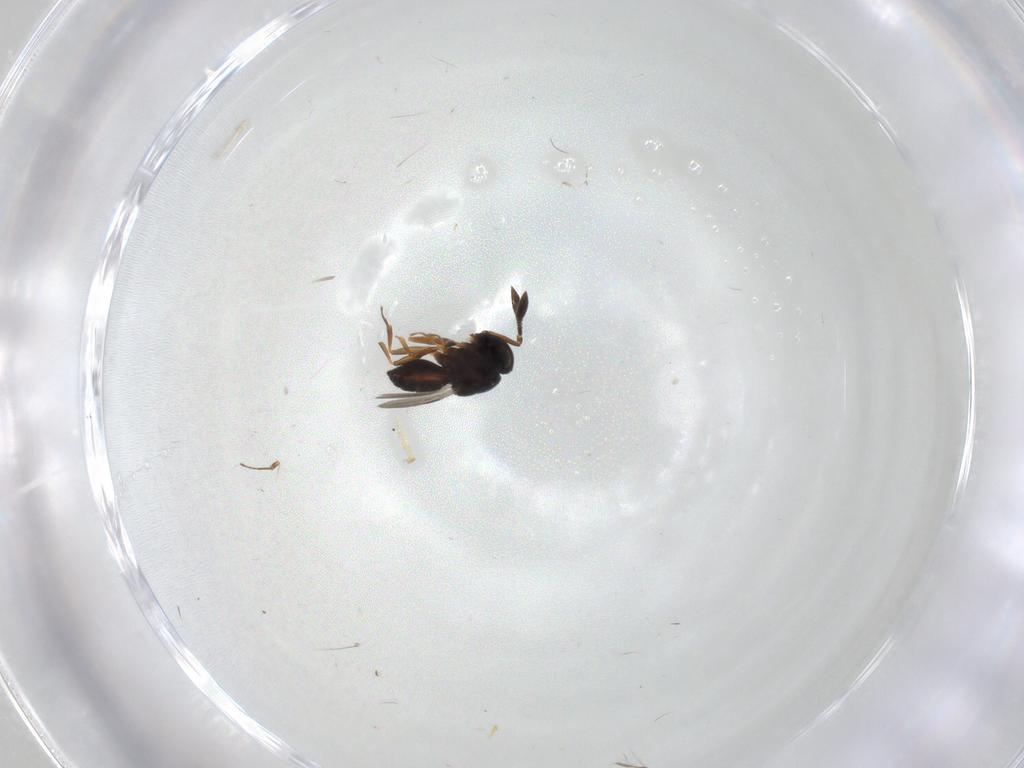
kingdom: Animalia
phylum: Arthropoda
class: Insecta
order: Hymenoptera
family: Scelionidae
